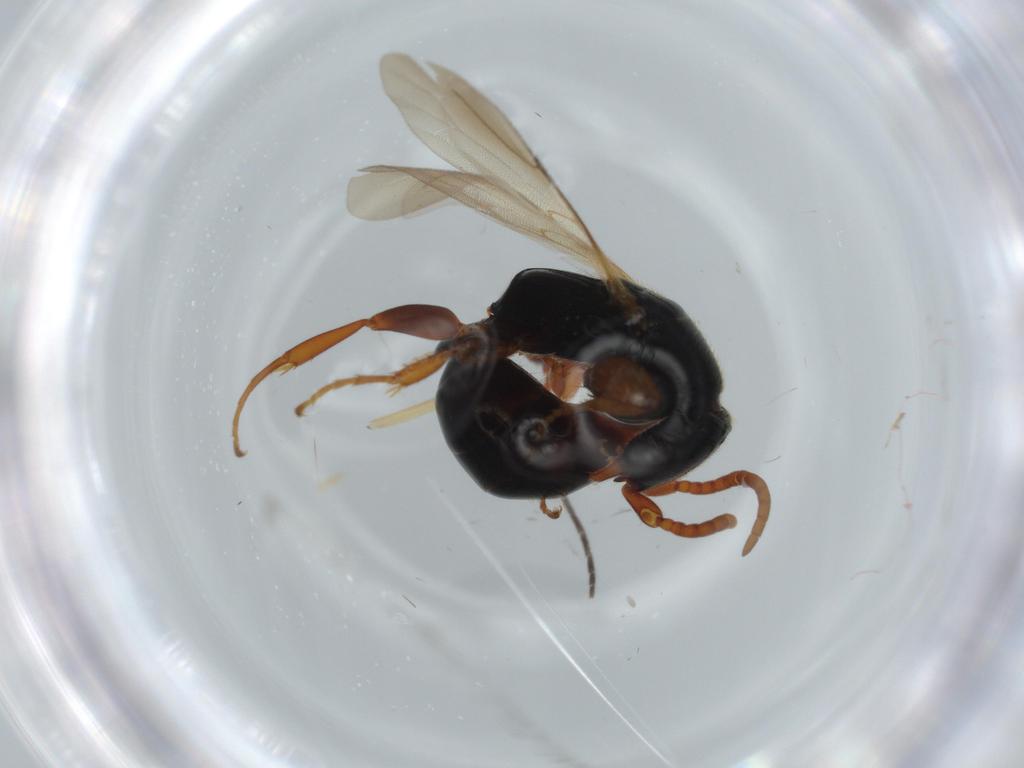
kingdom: Animalia
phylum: Arthropoda
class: Insecta
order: Hymenoptera
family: Bethylidae
